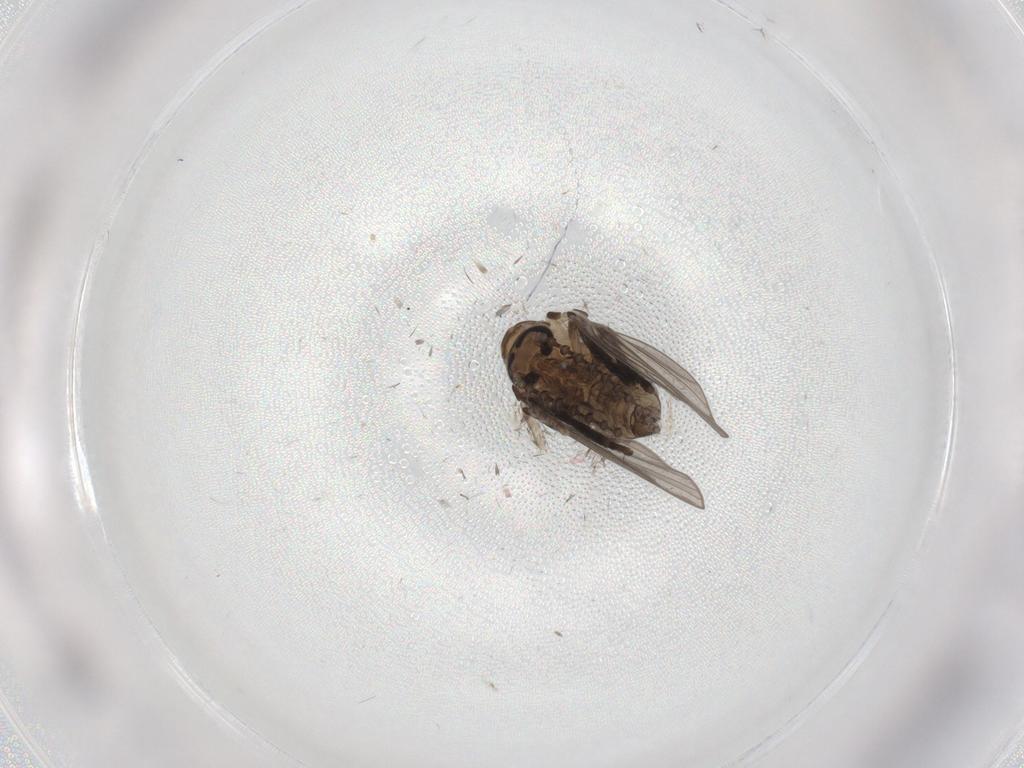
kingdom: Animalia
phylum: Arthropoda
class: Insecta
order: Diptera
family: Psychodidae
